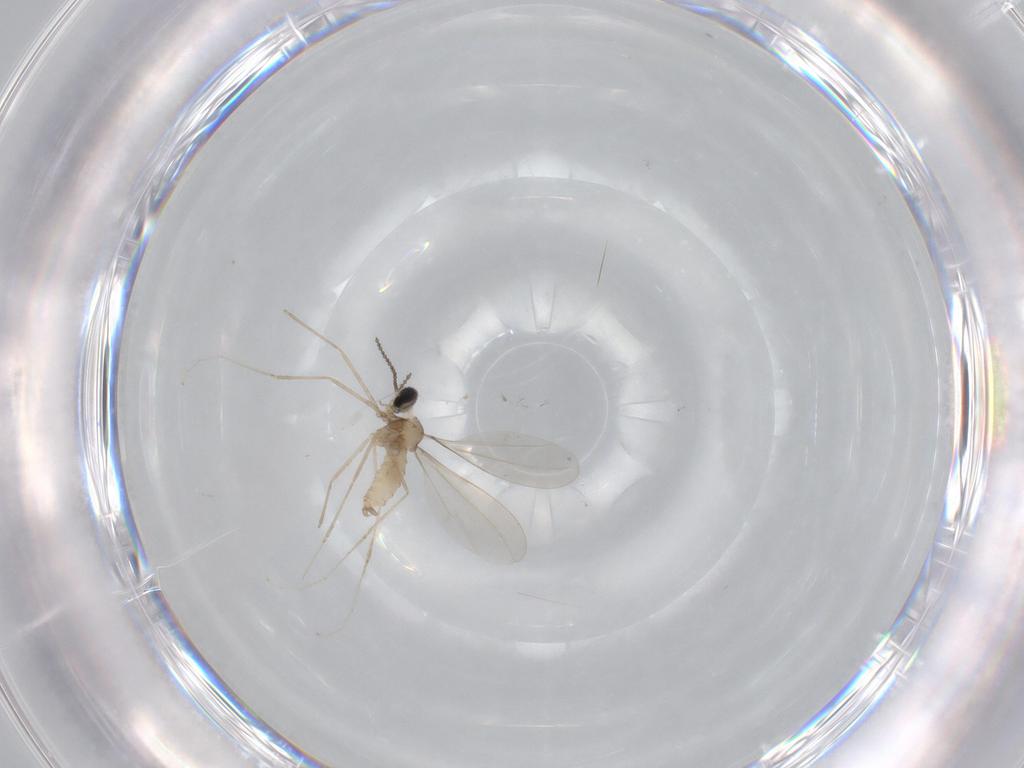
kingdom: Animalia
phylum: Arthropoda
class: Insecta
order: Diptera
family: Cecidomyiidae
